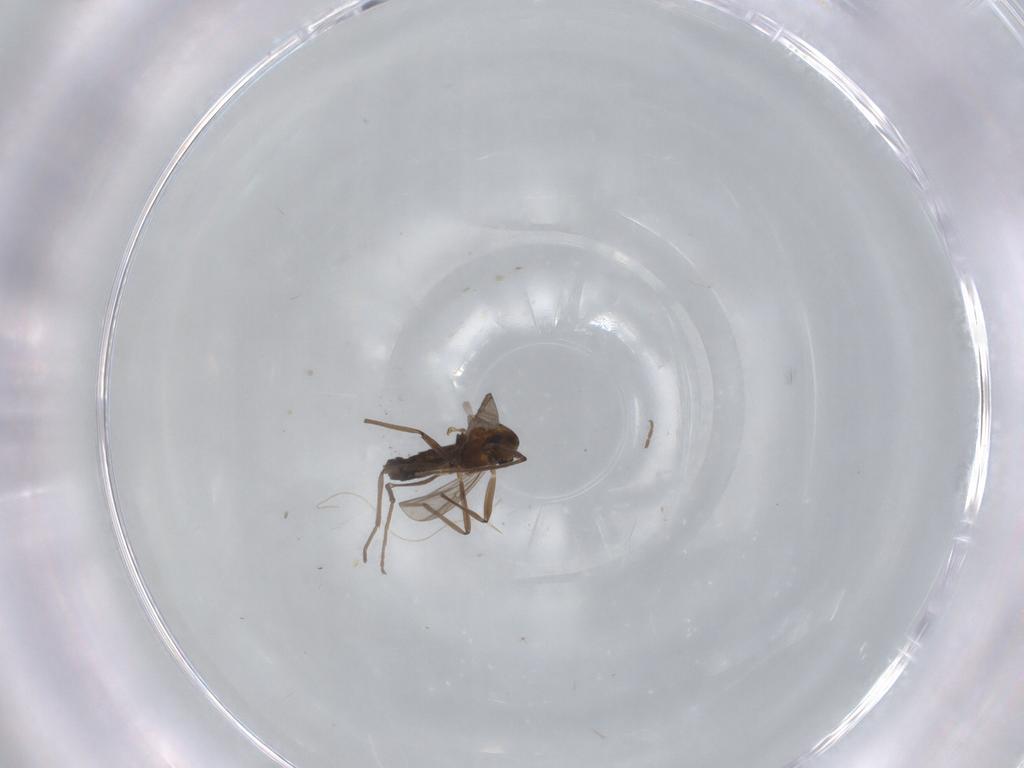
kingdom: Animalia
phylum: Arthropoda
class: Insecta
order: Diptera
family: Chironomidae
